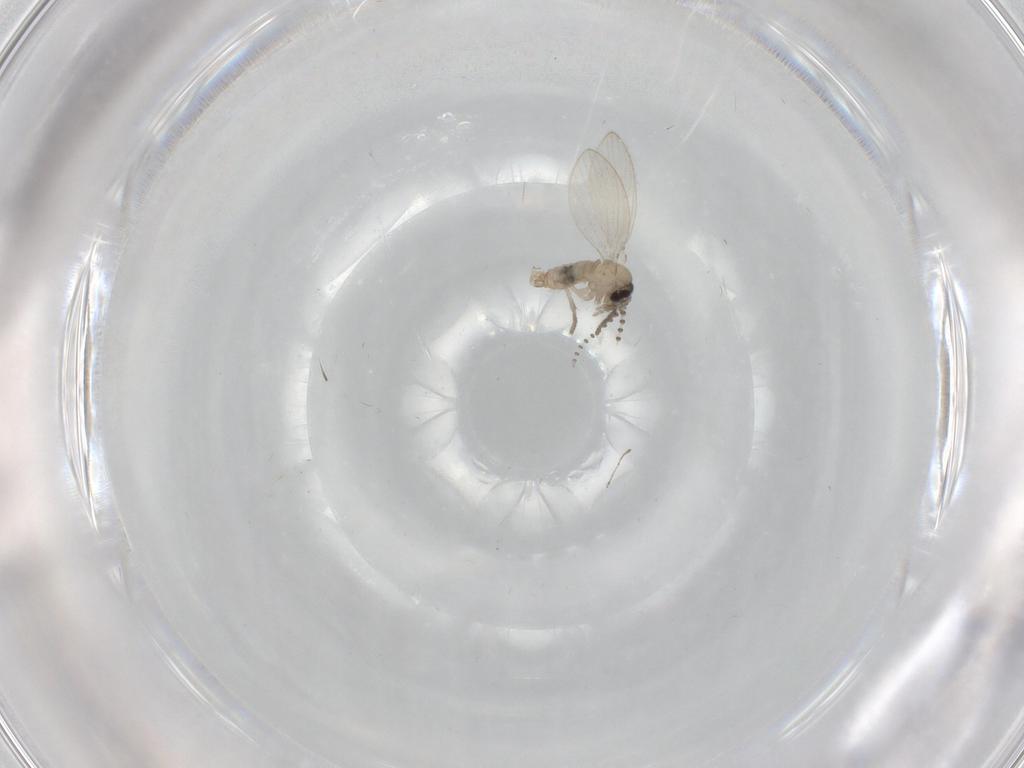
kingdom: Animalia
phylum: Arthropoda
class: Insecta
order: Diptera
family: Psychodidae
